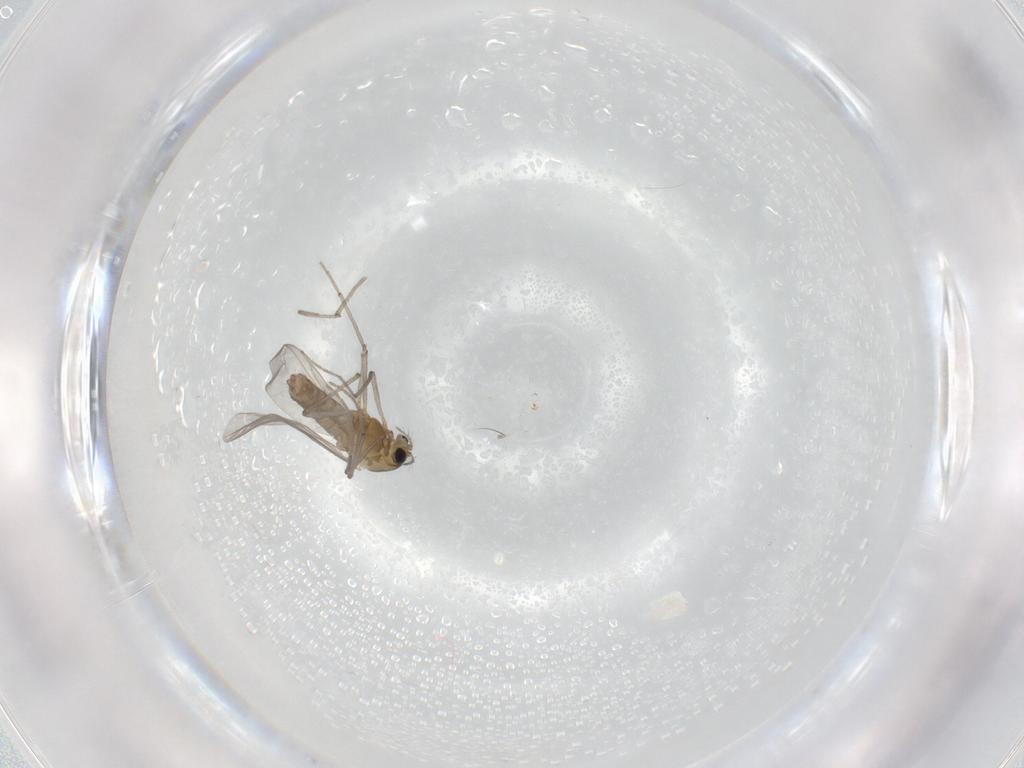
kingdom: Animalia
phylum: Arthropoda
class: Insecta
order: Diptera
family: Chironomidae
